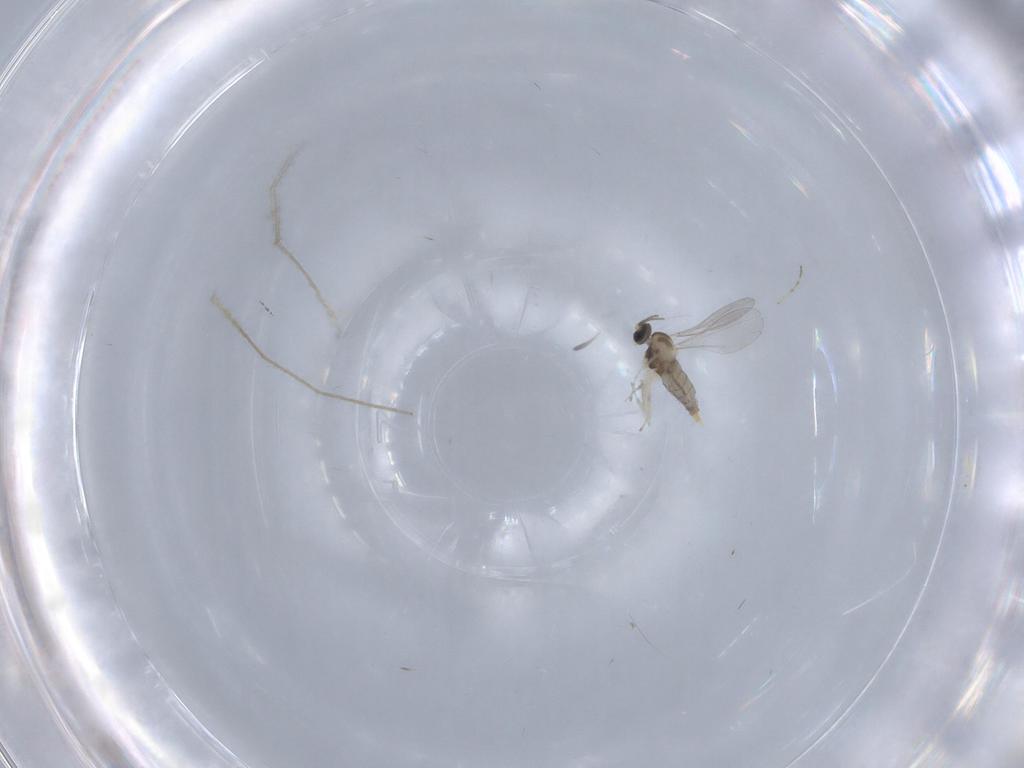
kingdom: Animalia
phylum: Arthropoda
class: Insecta
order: Diptera
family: Chironomidae
